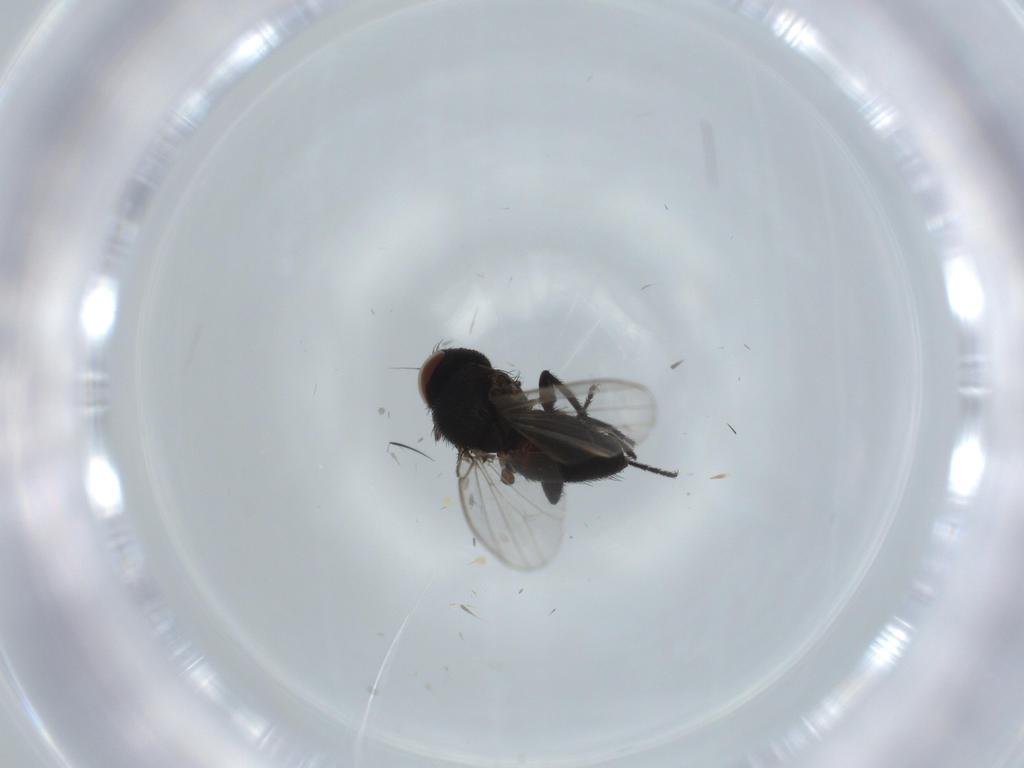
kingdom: Animalia
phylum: Arthropoda
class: Insecta
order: Diptera
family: Milichiidae
